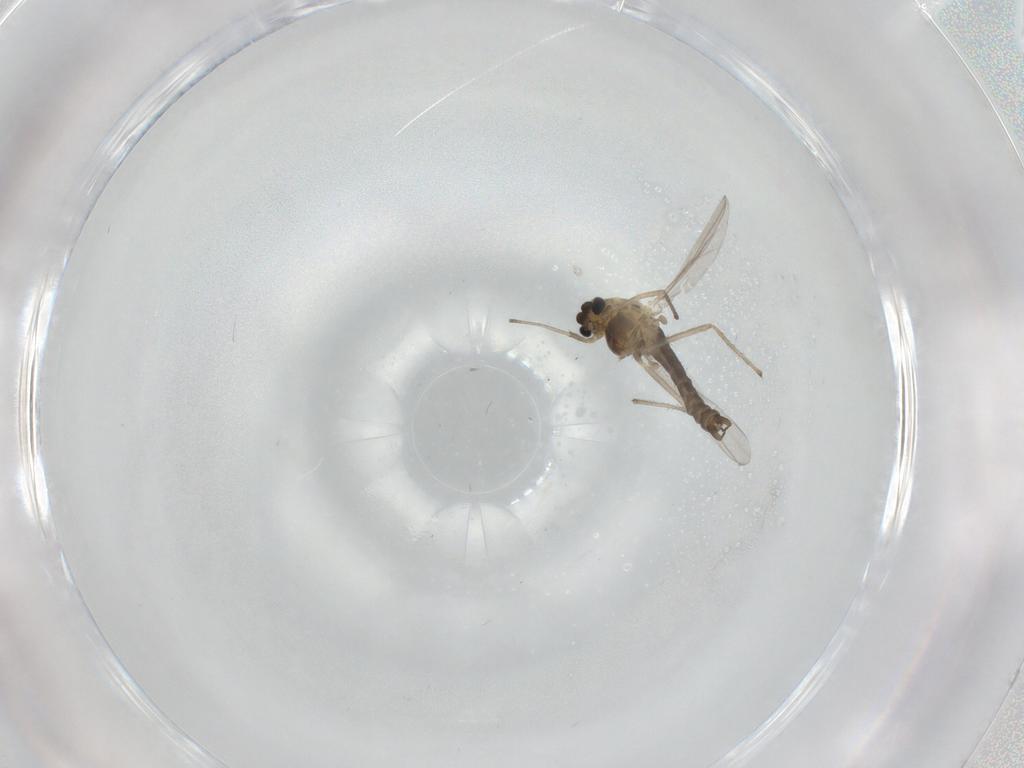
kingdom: Animalia
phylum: Arthropoda
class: Insecta
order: Diptera
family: Chironomidae
